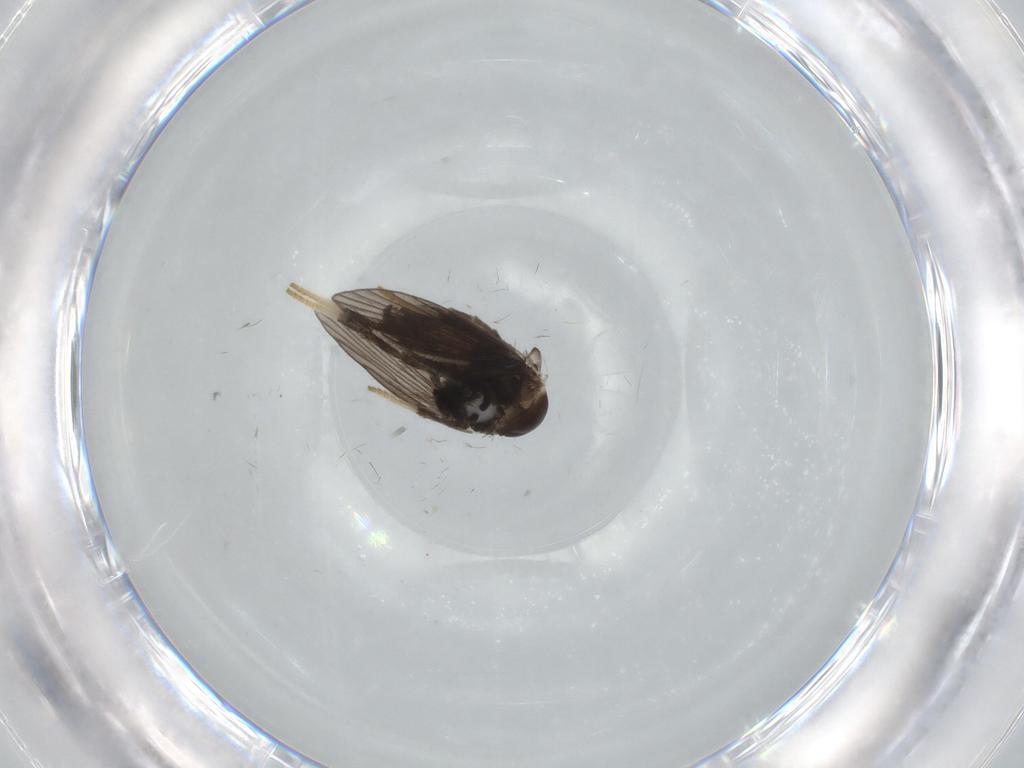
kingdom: Animalia
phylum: Arthropoda
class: Insecta
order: Diptera
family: Psychodidae
